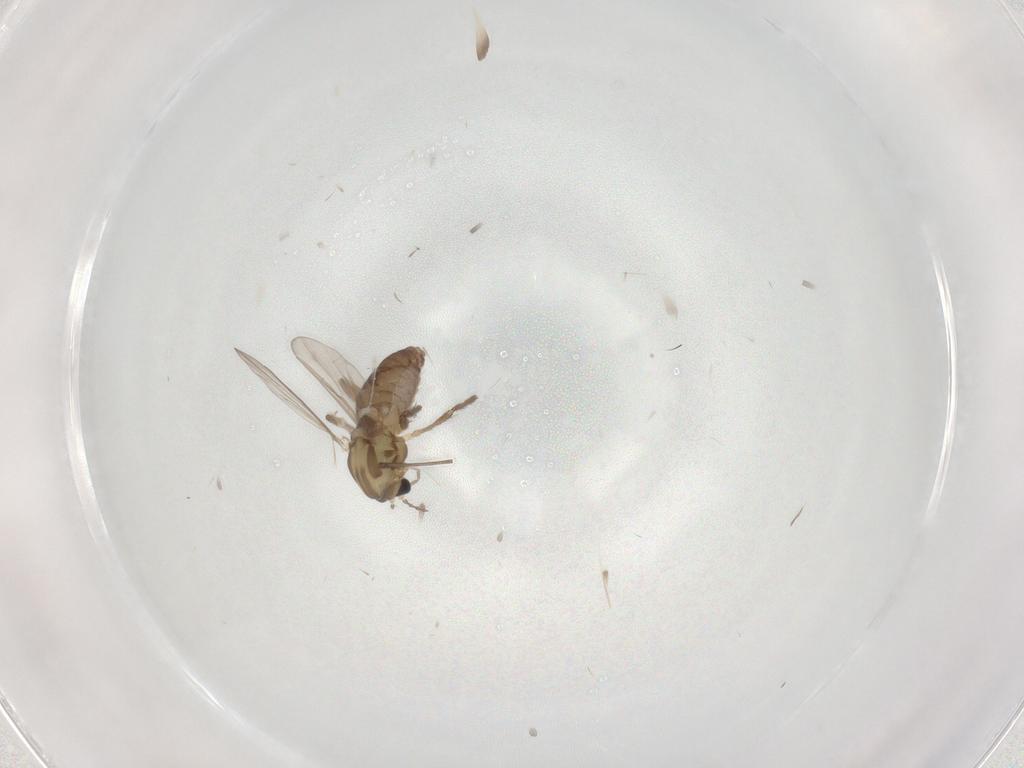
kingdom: Animalia
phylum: Arthropoda
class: Insecta
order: Diptera
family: Chironomidae
